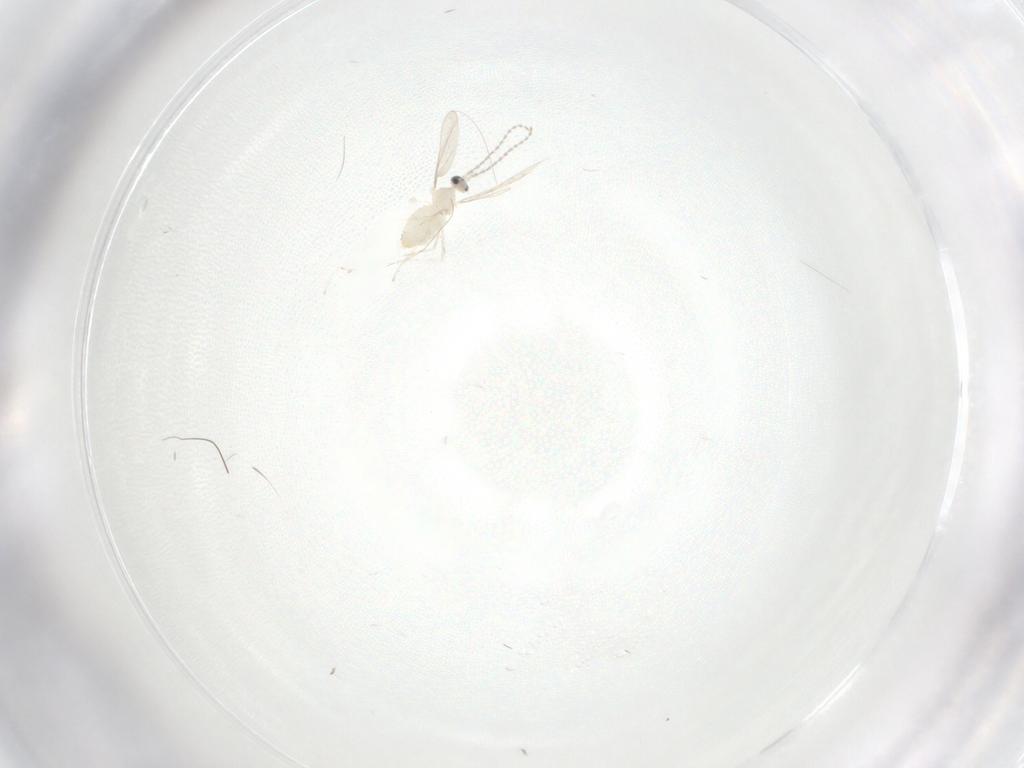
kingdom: Animalia
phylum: Arthropoda
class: Insecta
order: Diptera
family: Cecidomyiidae
